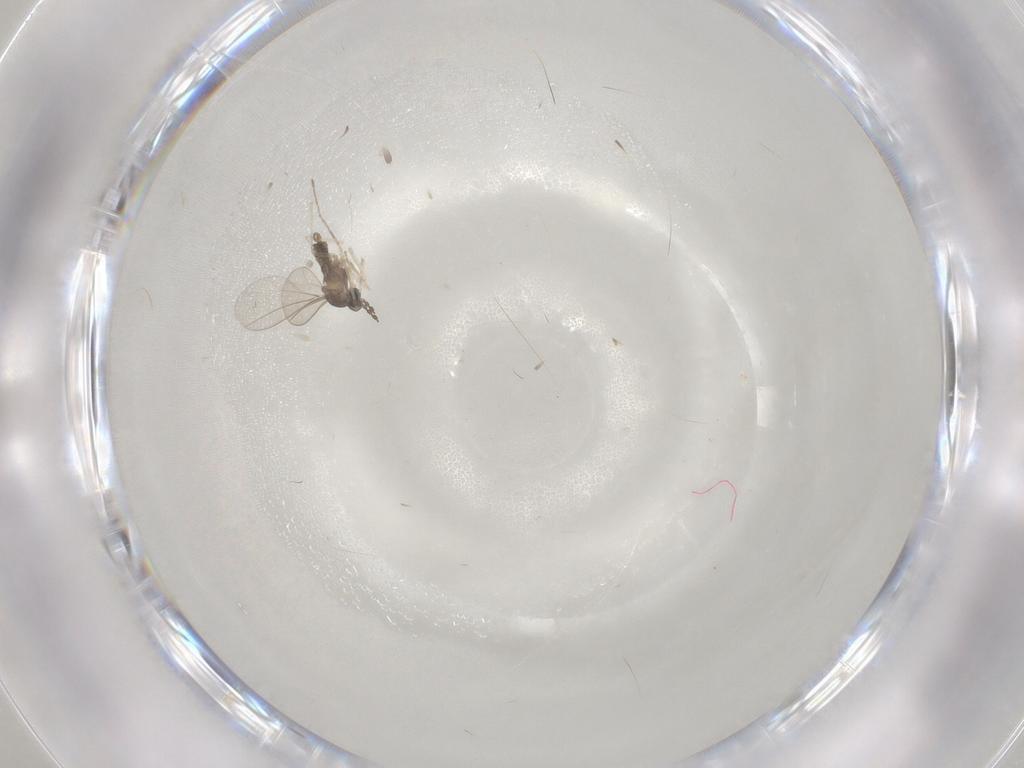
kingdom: Animalia
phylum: Arthropoda
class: Insecta
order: Diptera
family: Cecidomyiidae
